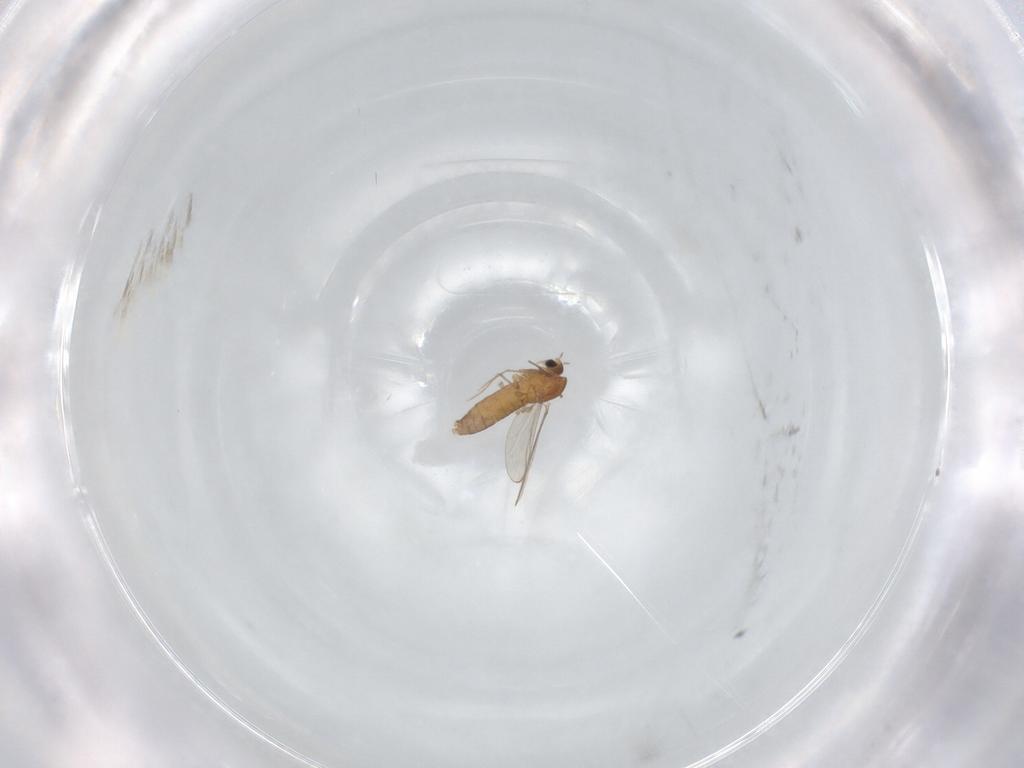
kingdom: Animalia
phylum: Arthropoda
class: Insecta
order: Diptera
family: Chironomidae
